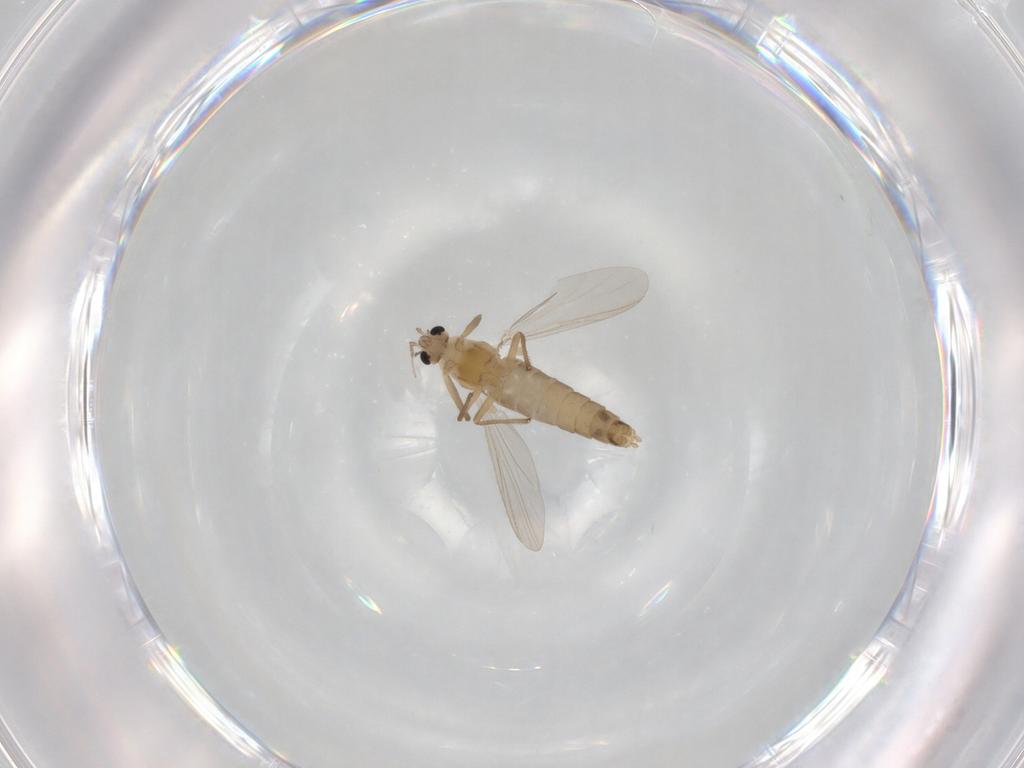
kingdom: Animalia
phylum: Arthropoda
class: Insecta
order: Diptera
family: Chironomidae
